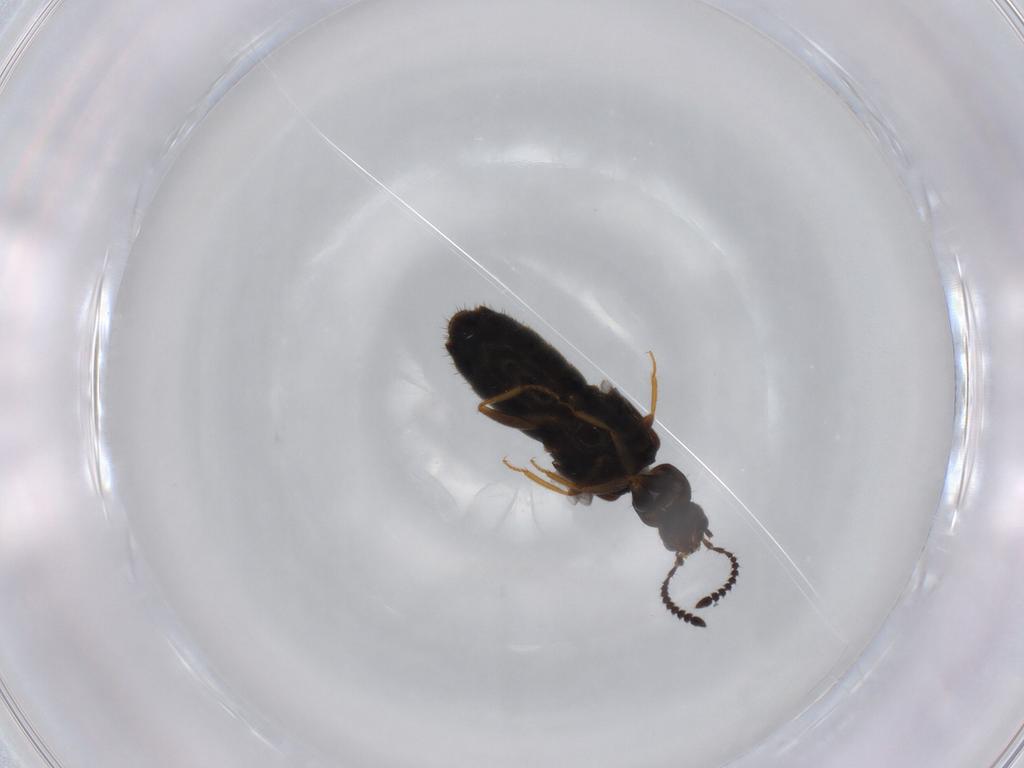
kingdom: Animalia
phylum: Arthropoda
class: Insecta
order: Coleoptera
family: Staphylinidae
